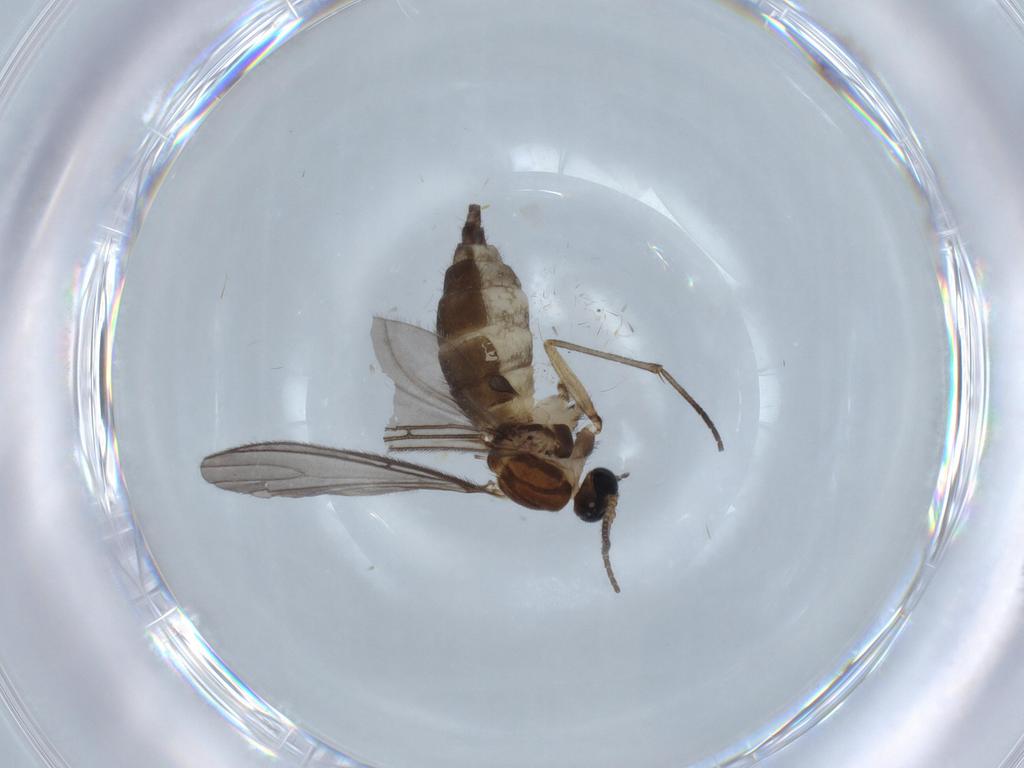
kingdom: Animalia
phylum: Arthropoda
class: Insecta
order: Diptera
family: Sciaridae
